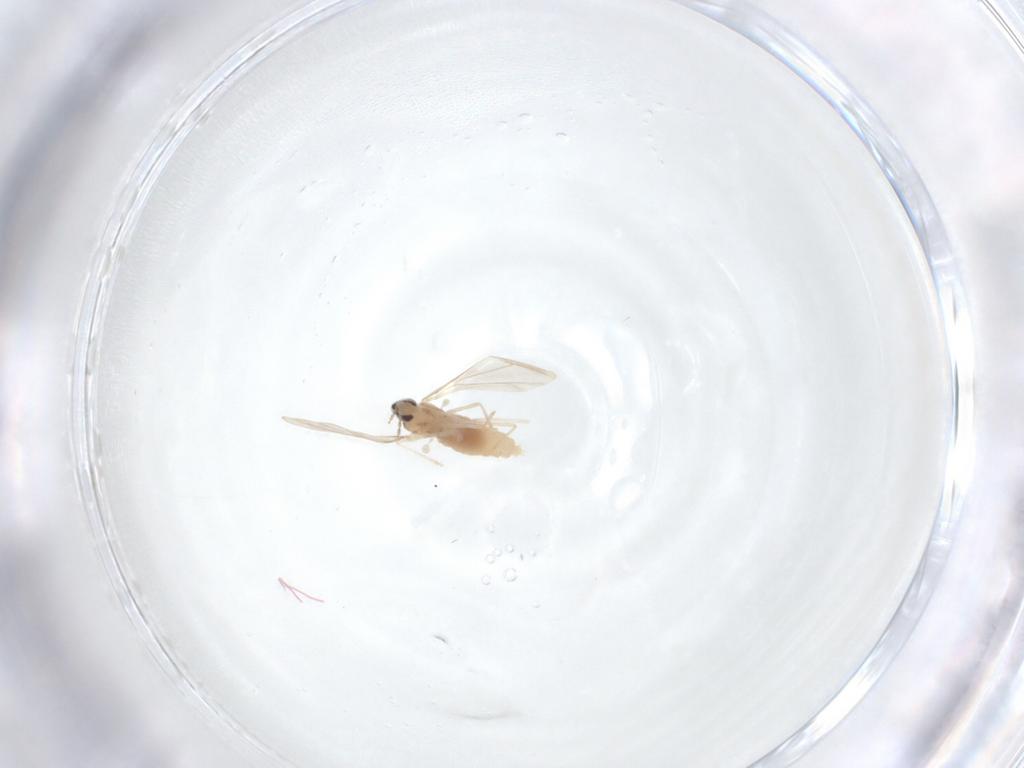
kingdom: Animalia
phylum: Arthropoda
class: Insecta
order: Diptera
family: Cecidomyiidae
